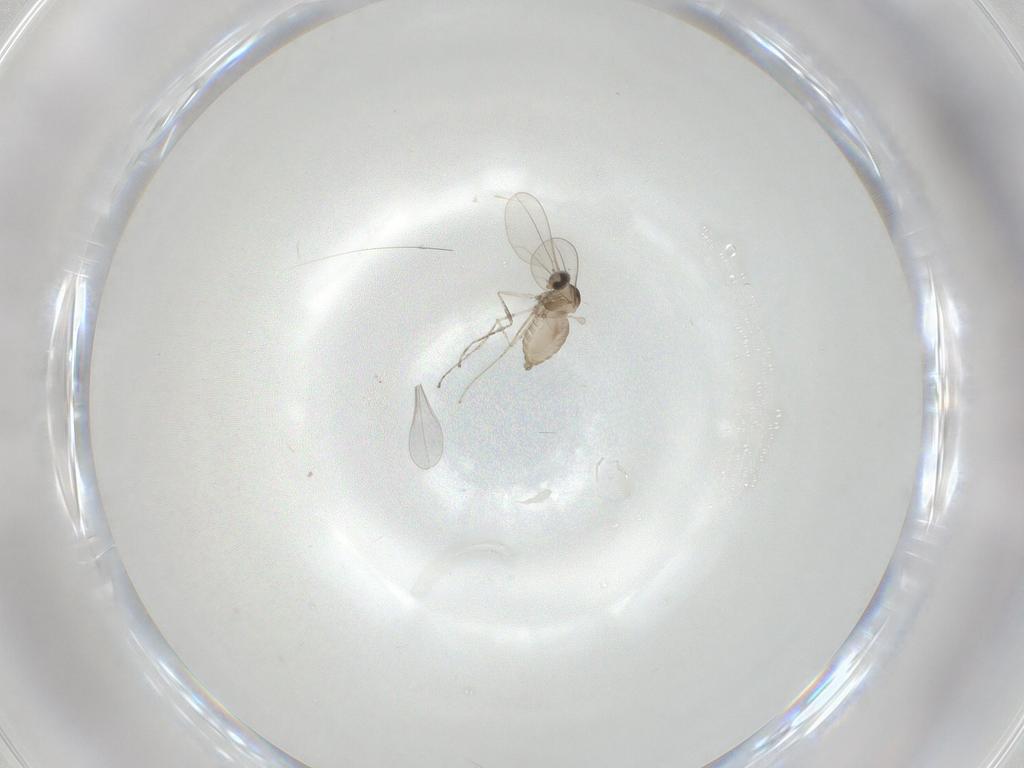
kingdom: Animalia
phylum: Arthropoda
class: Insecta
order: Diptera
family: Cecidomyiidae
